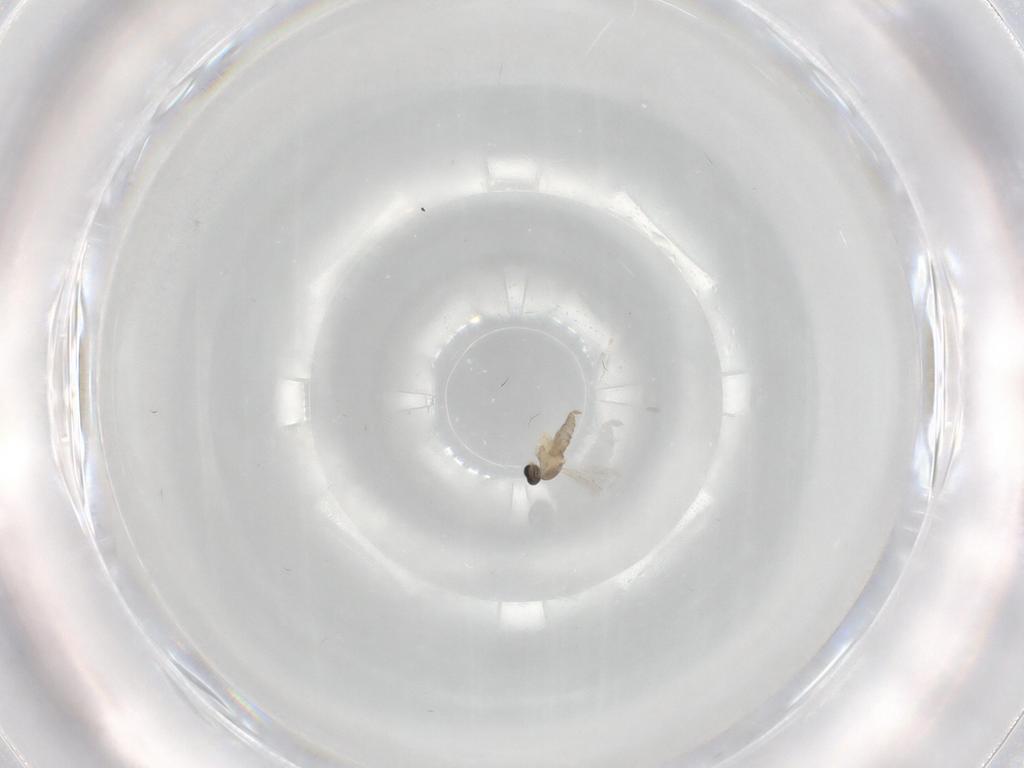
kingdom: Animalia
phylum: Arthropoda
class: Insecta
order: Diptera
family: Cecidomyiidae
